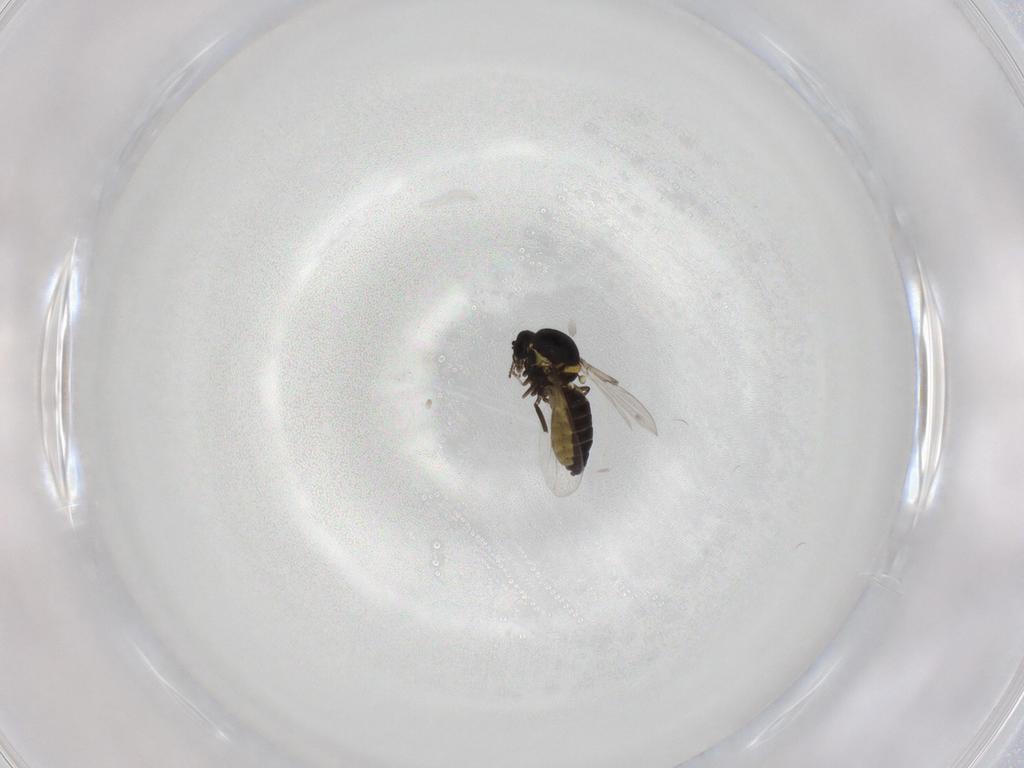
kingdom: Animalia
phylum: Arthropoda
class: Insecta
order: Diptera
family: Ceratopogonidae
